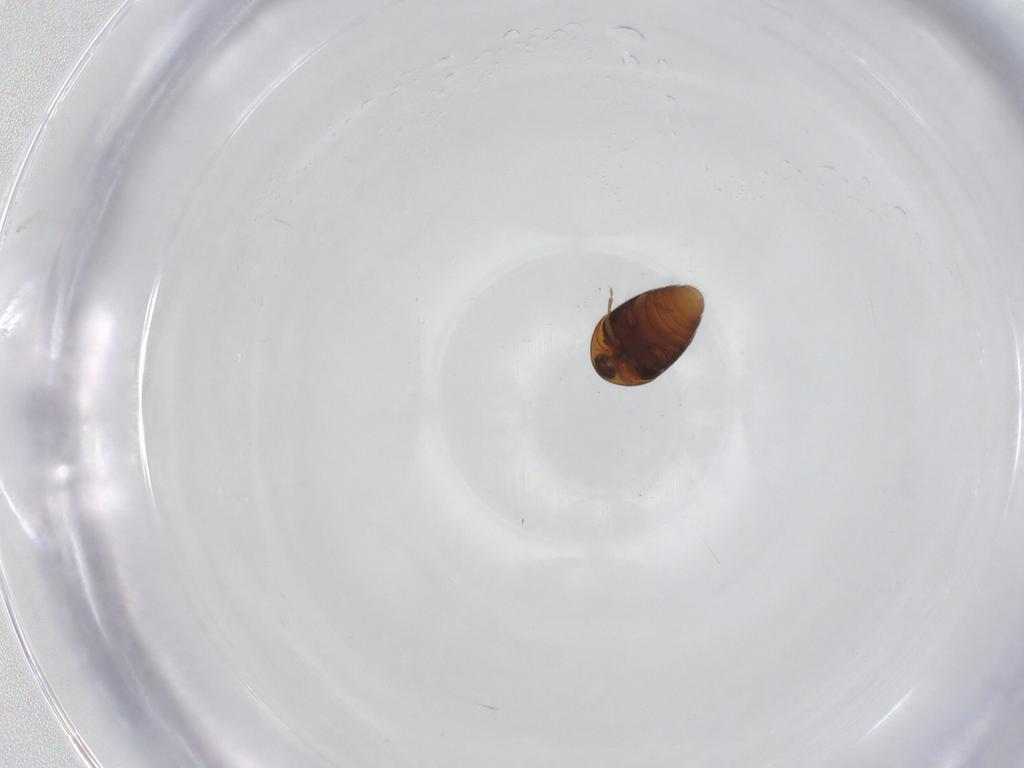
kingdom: Animalia
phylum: Arthropoda
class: Insecta
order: Coleoptera
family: Corylophidae
